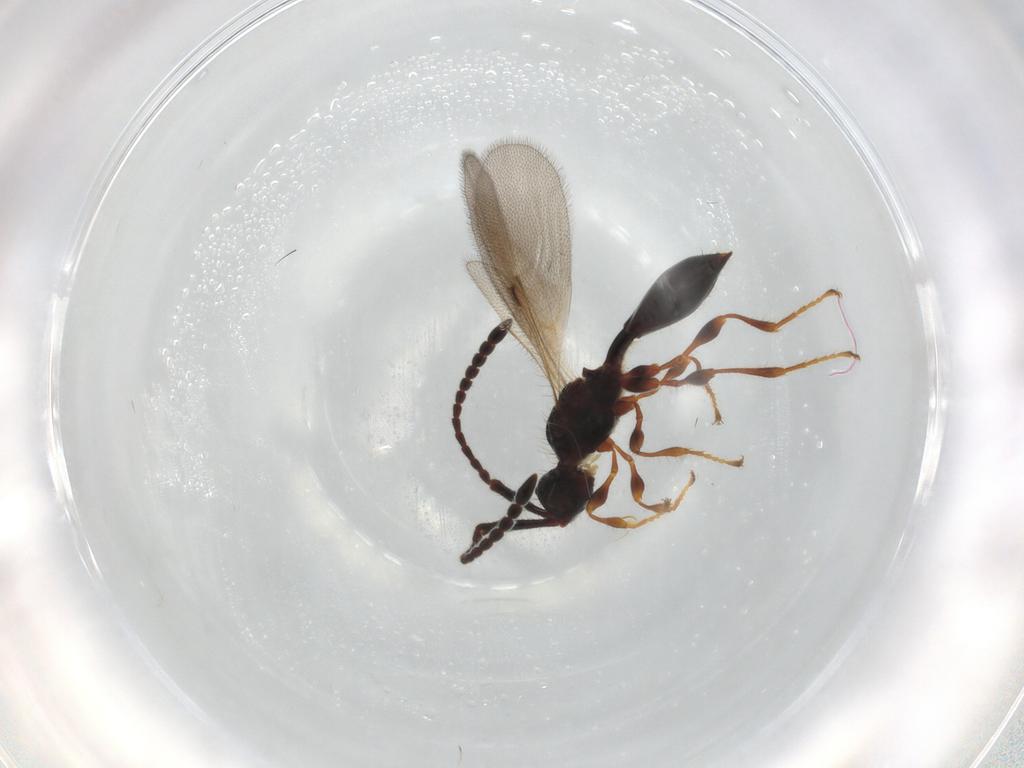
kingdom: Animalia
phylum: Arthropoda
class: Insecta
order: Hymenoptera
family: Diapriidae
